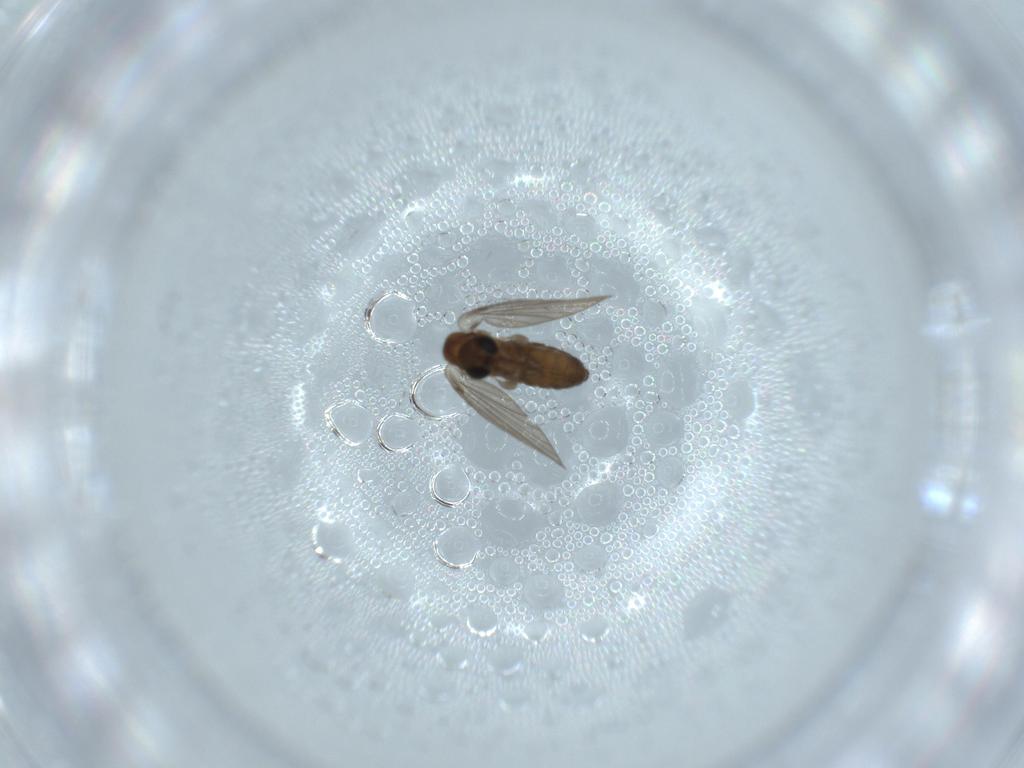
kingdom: Animalia
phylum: Arthropoda
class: Insecta
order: Diptera
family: Psychodidae
